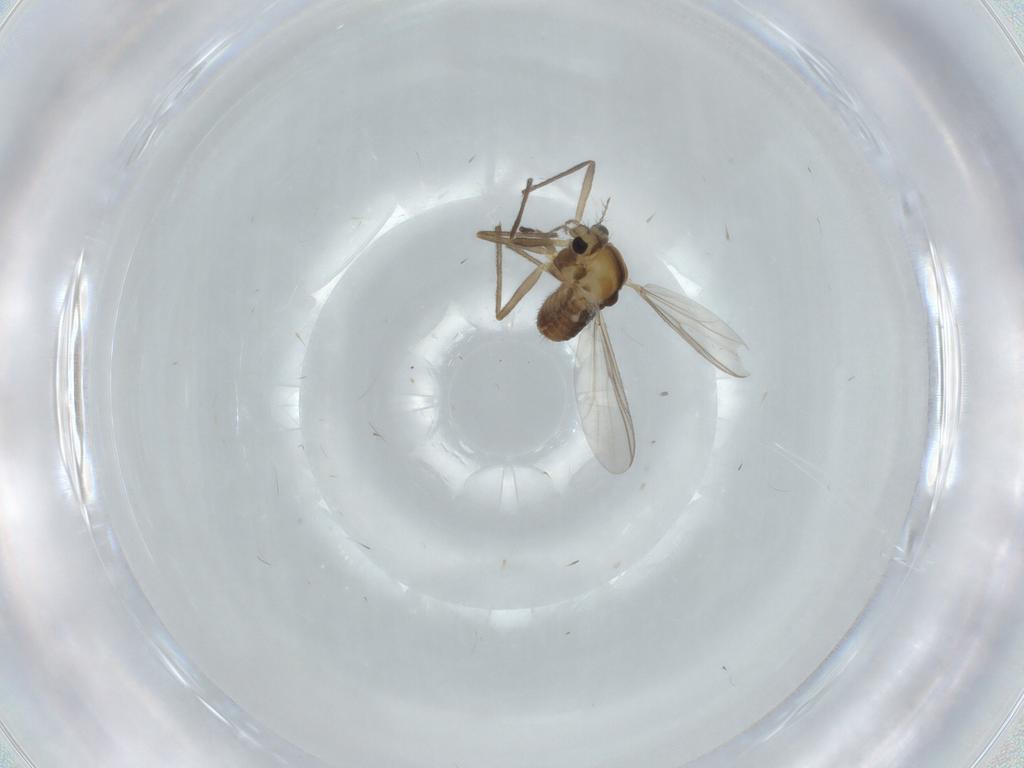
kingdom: Animalia
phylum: Arthropoda
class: Insecta
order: Diptera
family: Chironomidae
